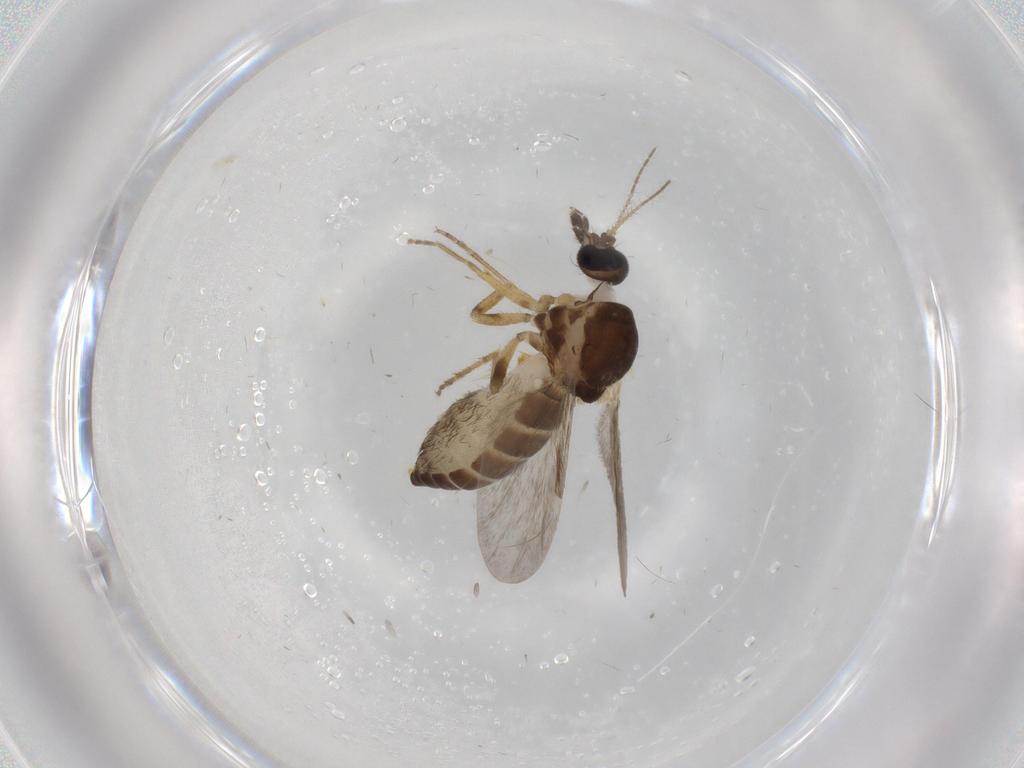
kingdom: Animalia
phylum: Arthropoda
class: Insecta
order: Diptera
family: Ceratopogonidae
